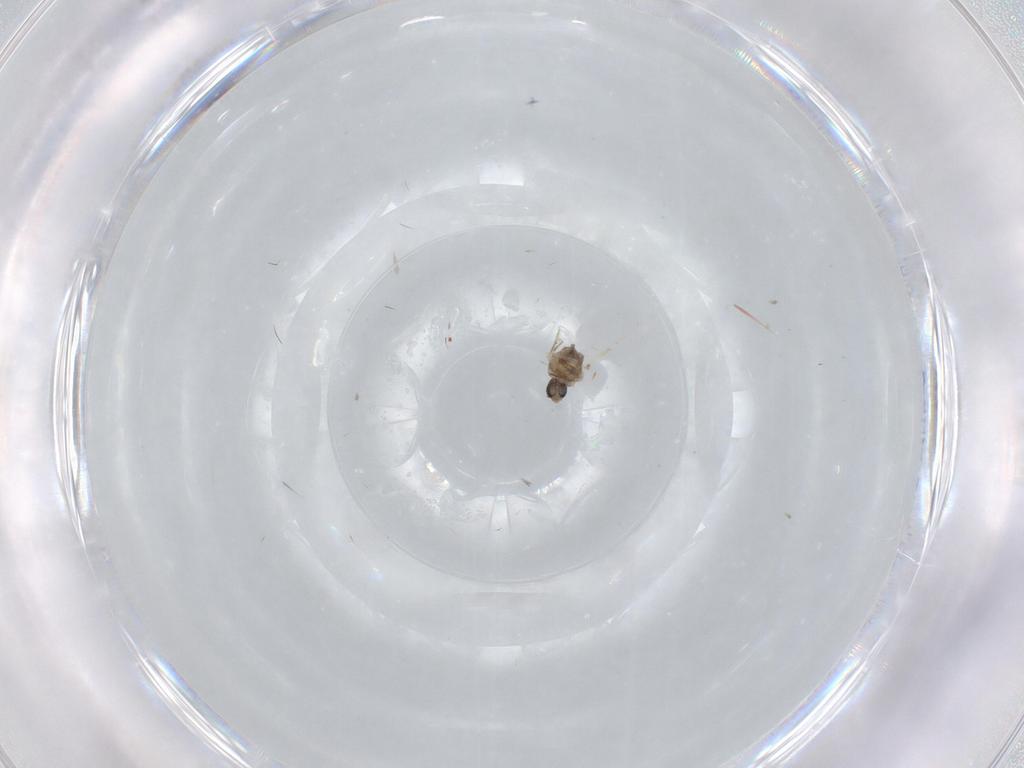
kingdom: Animalia
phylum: Arthropoda
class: Insecta
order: Diptera
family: Cecidomyiidae
